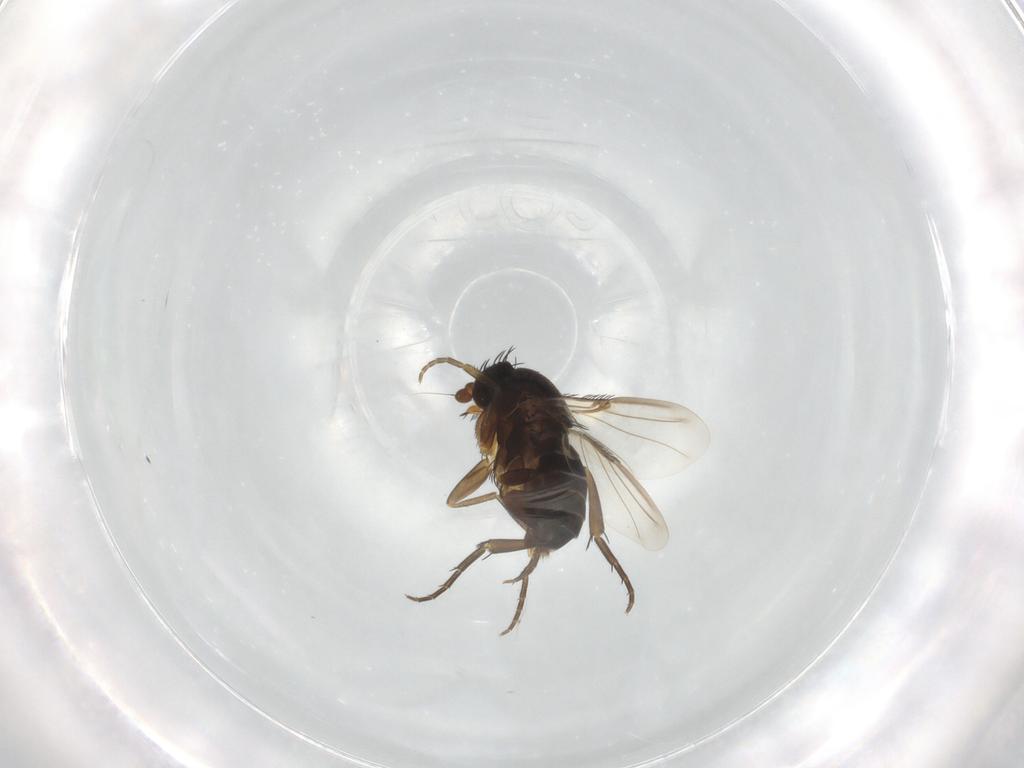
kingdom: Animalia
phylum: Arthropoda
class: Insecta
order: Diptera
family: Phoridae
